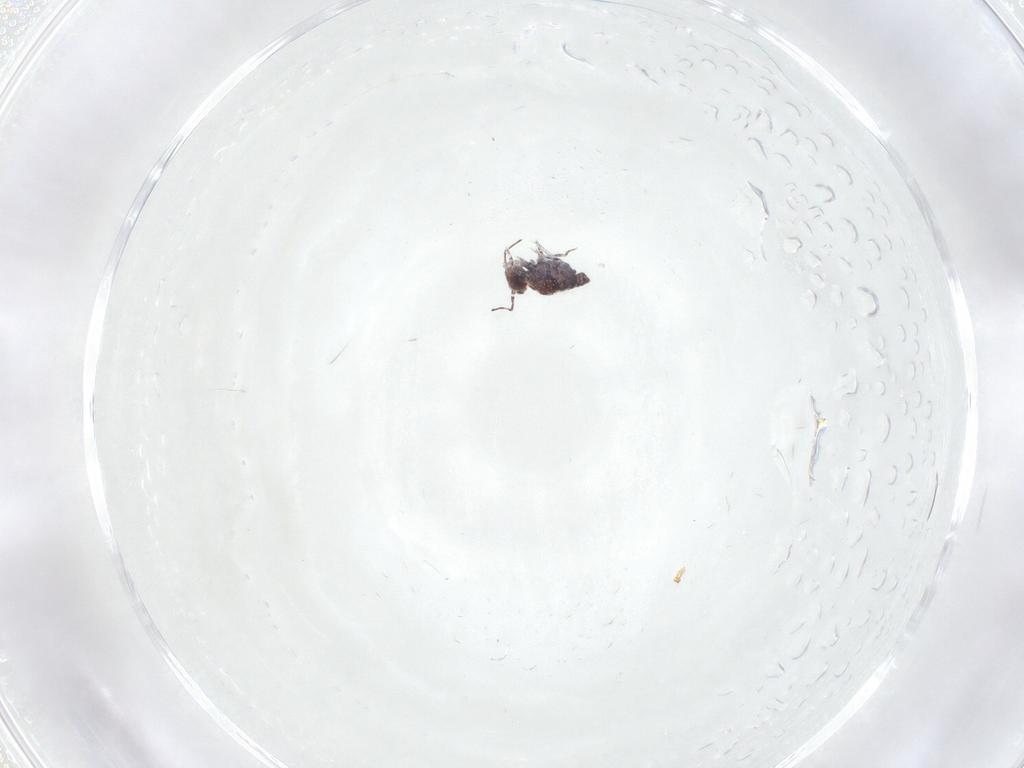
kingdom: Animalia
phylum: Arthropoda
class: Collembola
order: Symphypleona
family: Bourletiellidae
